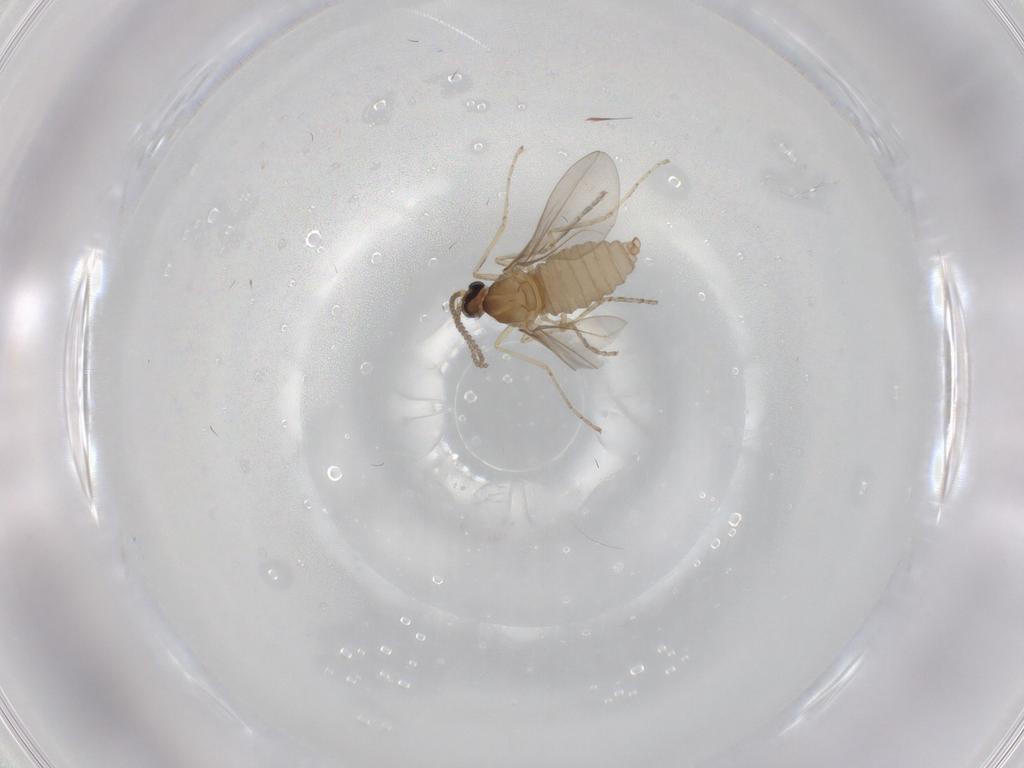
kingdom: Animalia
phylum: Arthropoda
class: Insecta
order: Diptera
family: Cecidomyiidae
